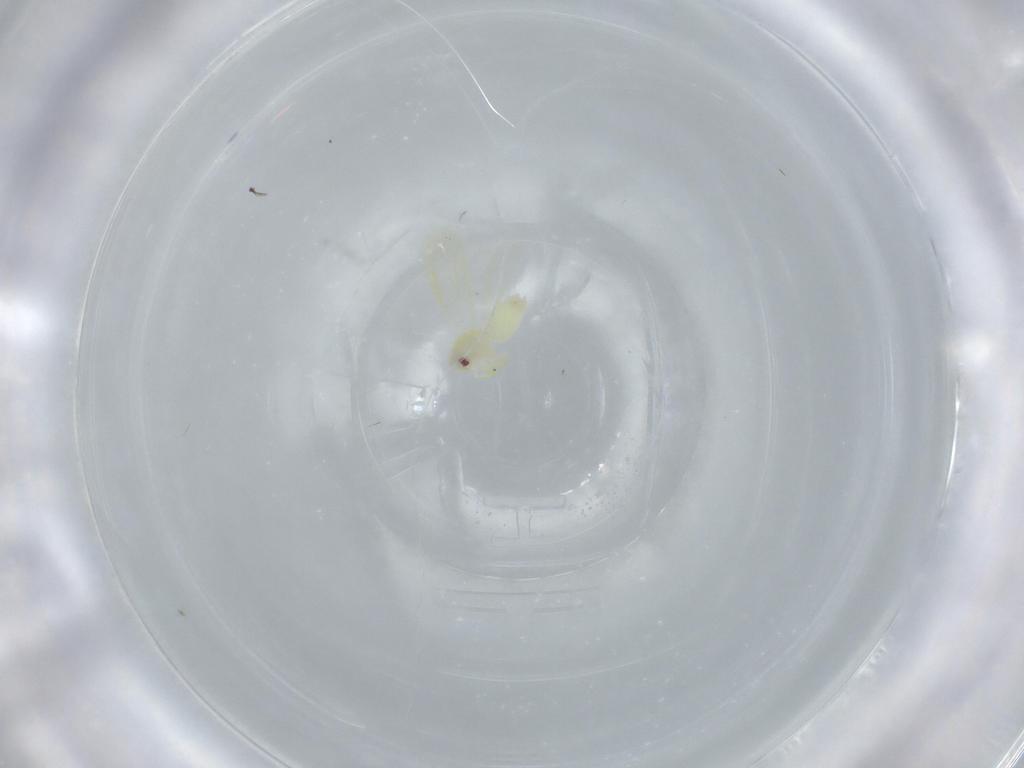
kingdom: Animalia
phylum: Arthropoda
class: Insecta
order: Hemiptera
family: Aleyrodidae
